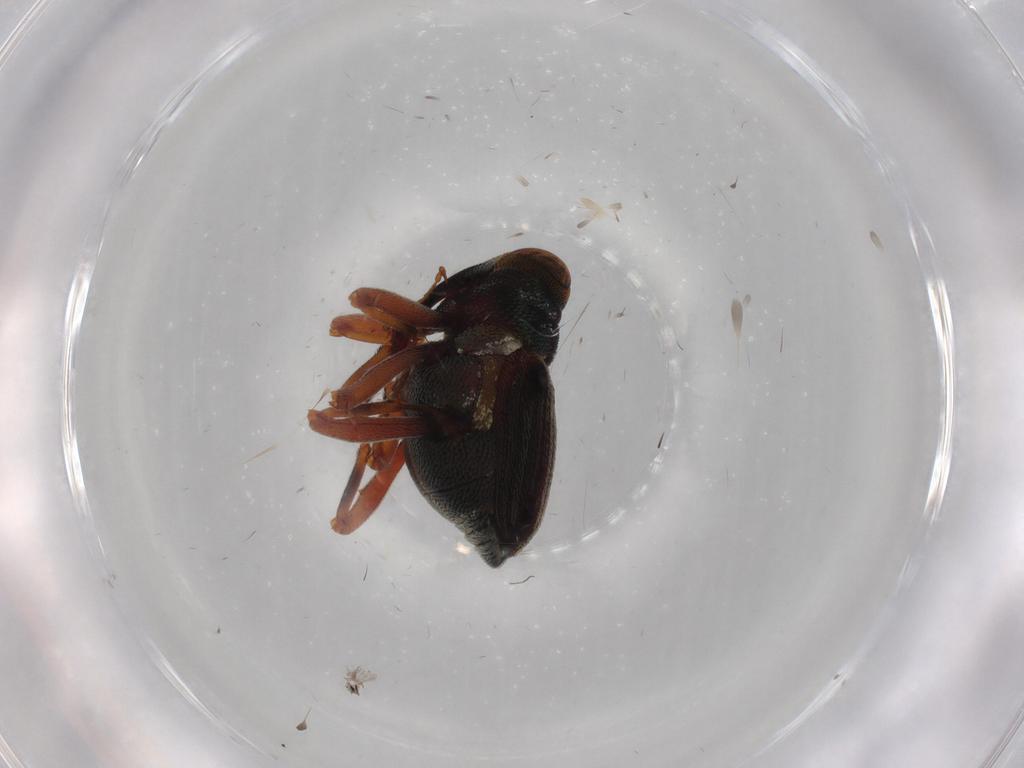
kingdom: Animalia
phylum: Arthropoda
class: Insecta
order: Coleoptera
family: Curculionidae
